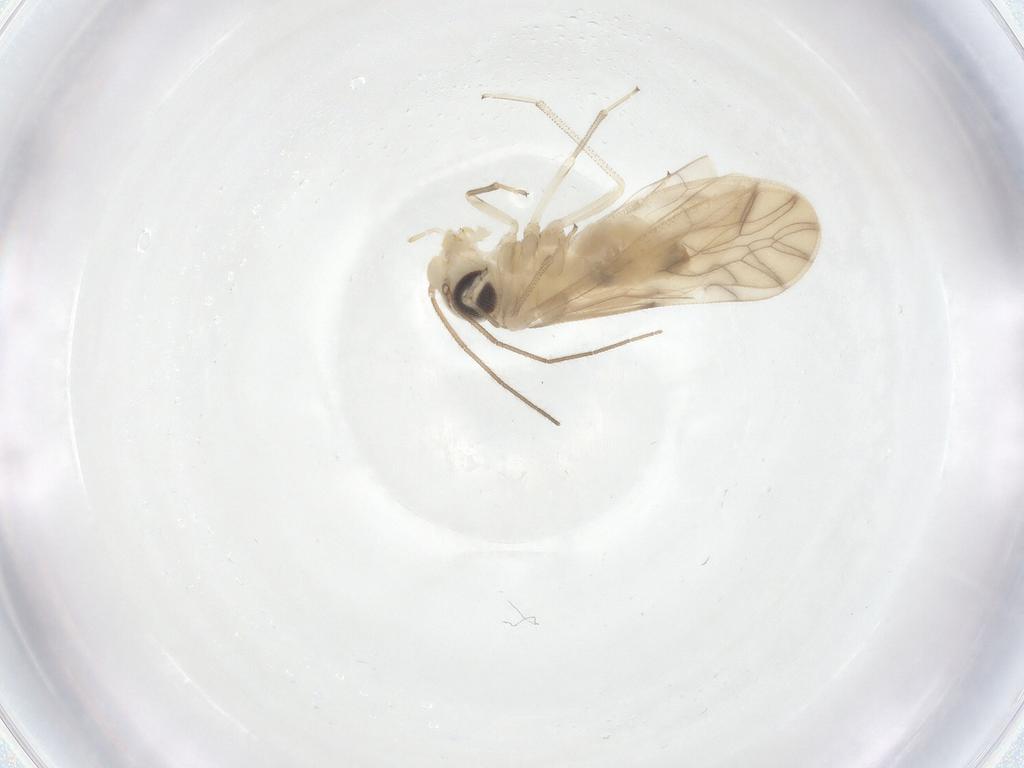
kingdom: Animalia
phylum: Arthropoda
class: Insecta
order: Psocodea
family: Caeciliusidae
